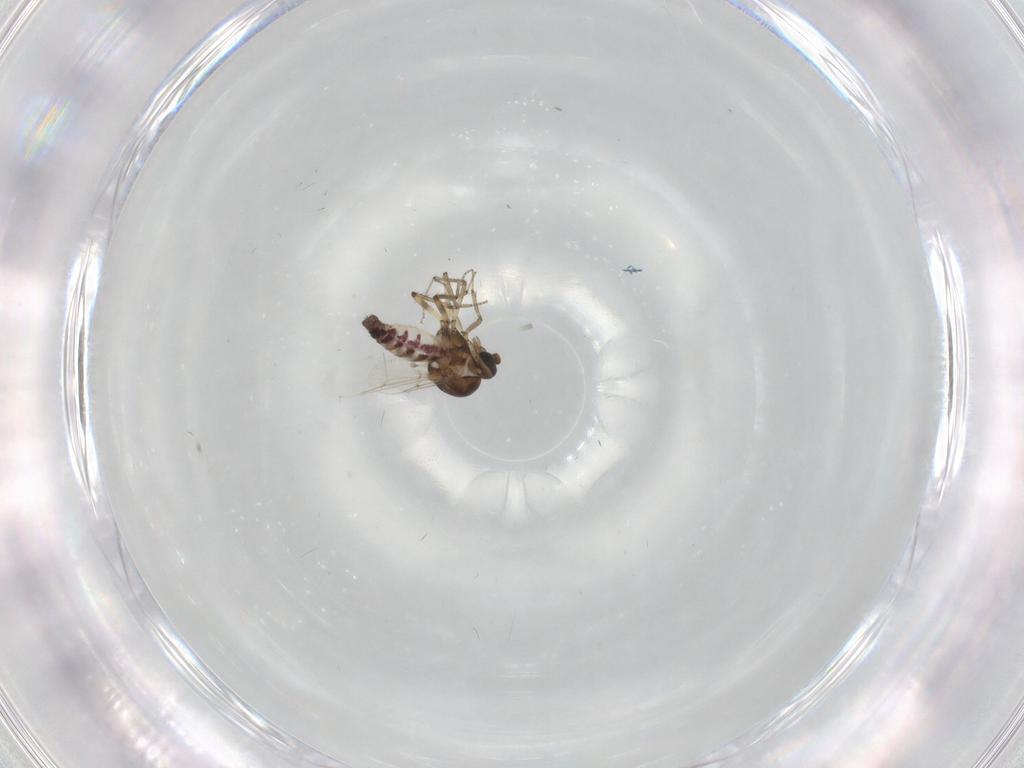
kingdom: Animalia
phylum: Arthropoda
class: Insecta
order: Diptera
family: Ceratopogonidae
